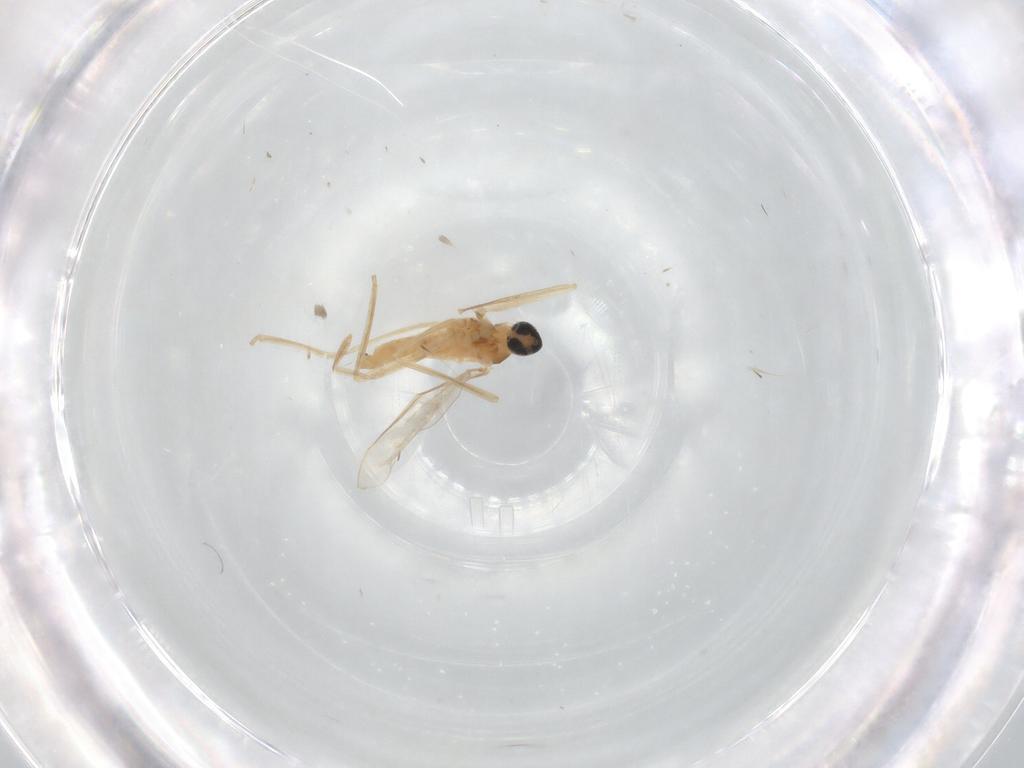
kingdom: Animalia
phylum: Arthropoda
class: Insecta
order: Diptera
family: Cecidomyiidae
